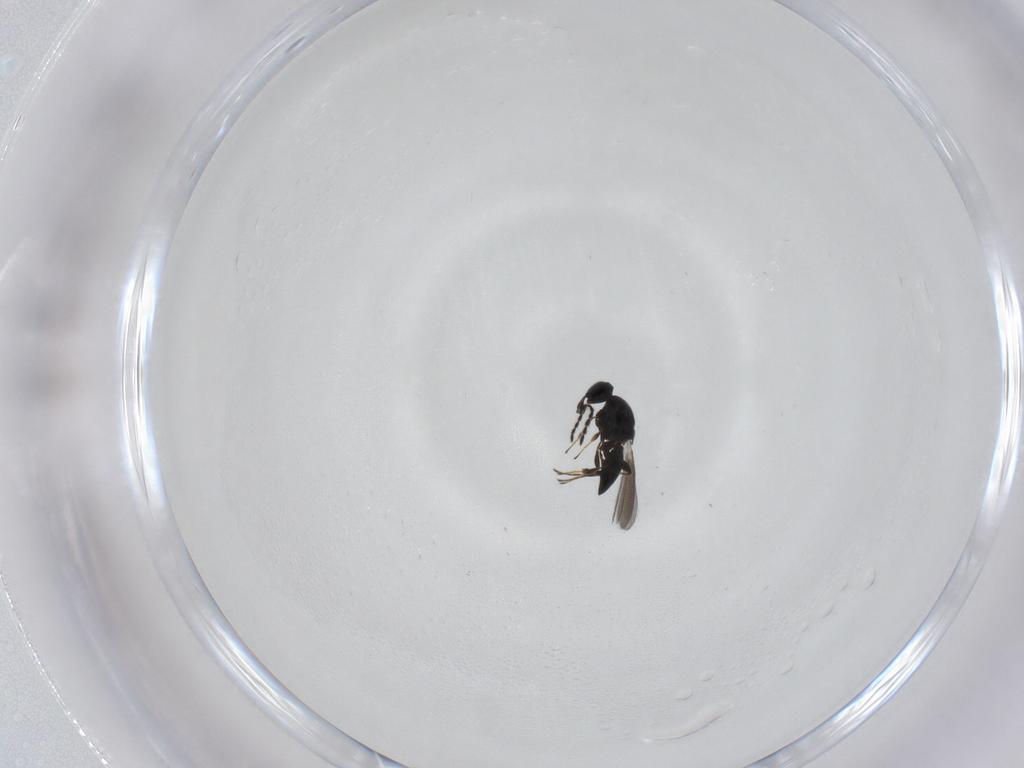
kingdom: Animalia
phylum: Arthropoda
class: Insecta
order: Hymenoptera
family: Platygastridae
